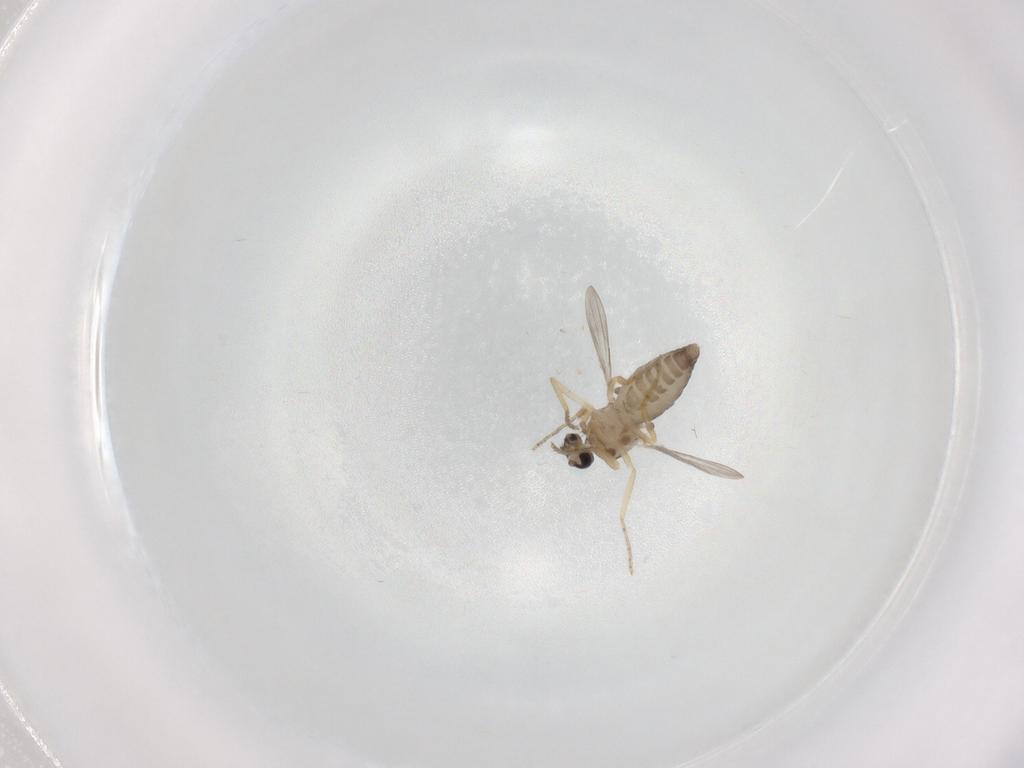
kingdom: Animalia
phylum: Arthropoda
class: Insecta
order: Diptera
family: Ceratopogonidae
